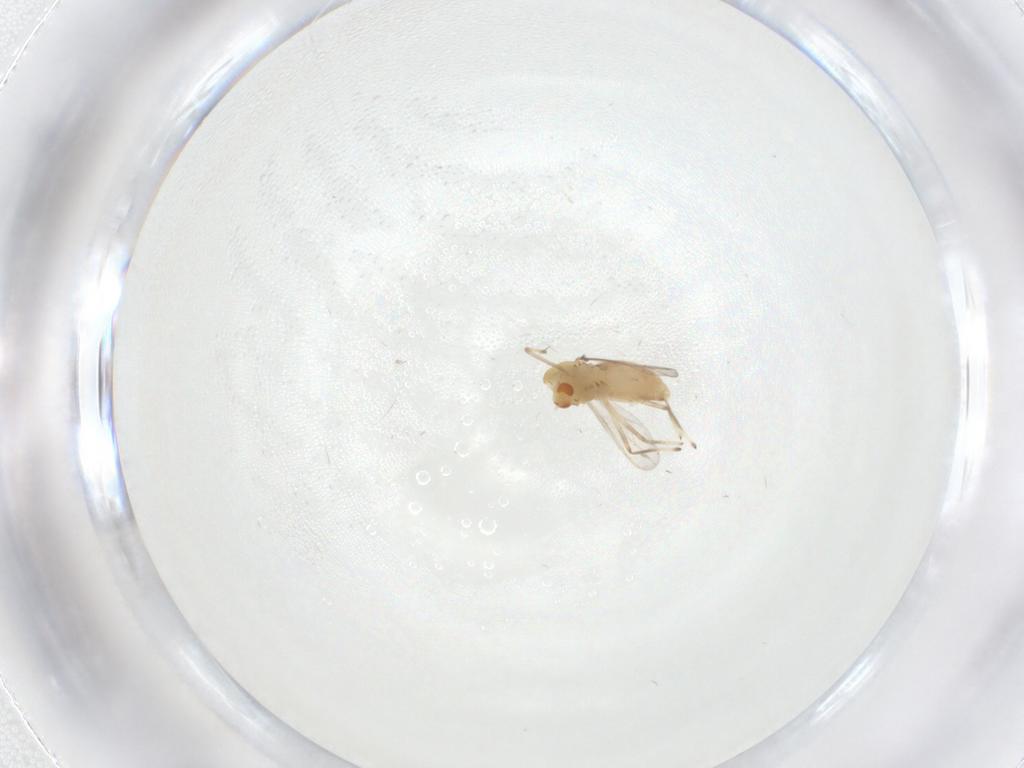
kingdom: Animalia
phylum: Arthropoda
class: Insecta
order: Diptera
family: Chironomidae
